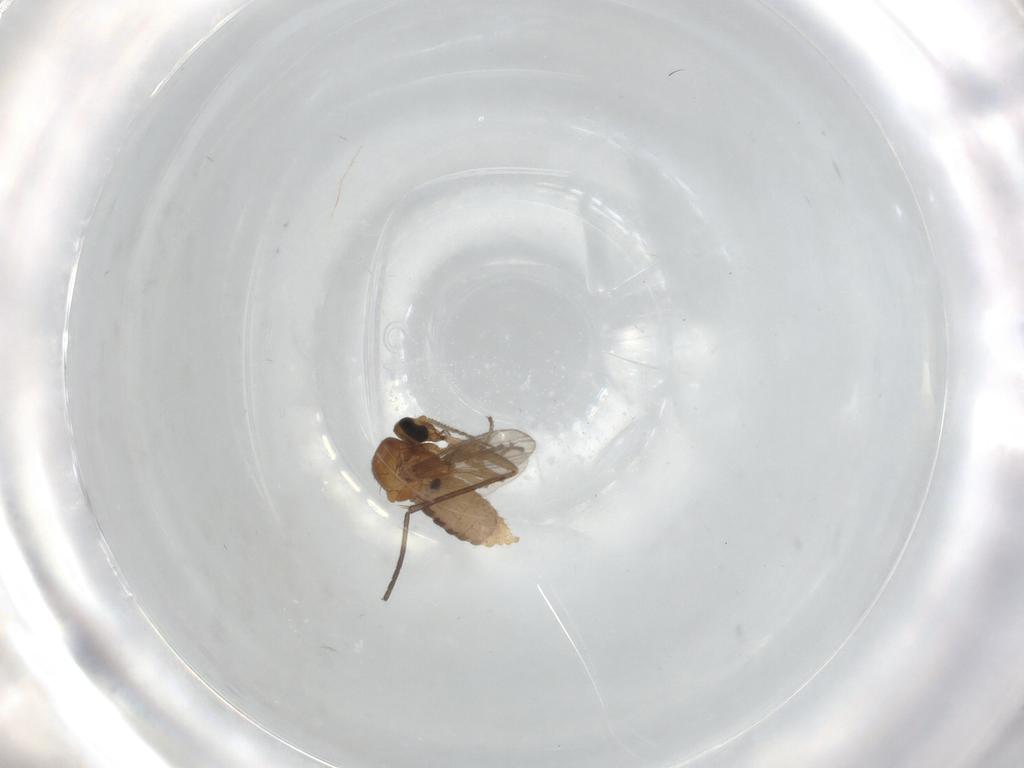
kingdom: Animalia
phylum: Arthropoda
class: Insecta
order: Diptera
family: Ceratopogonidae
